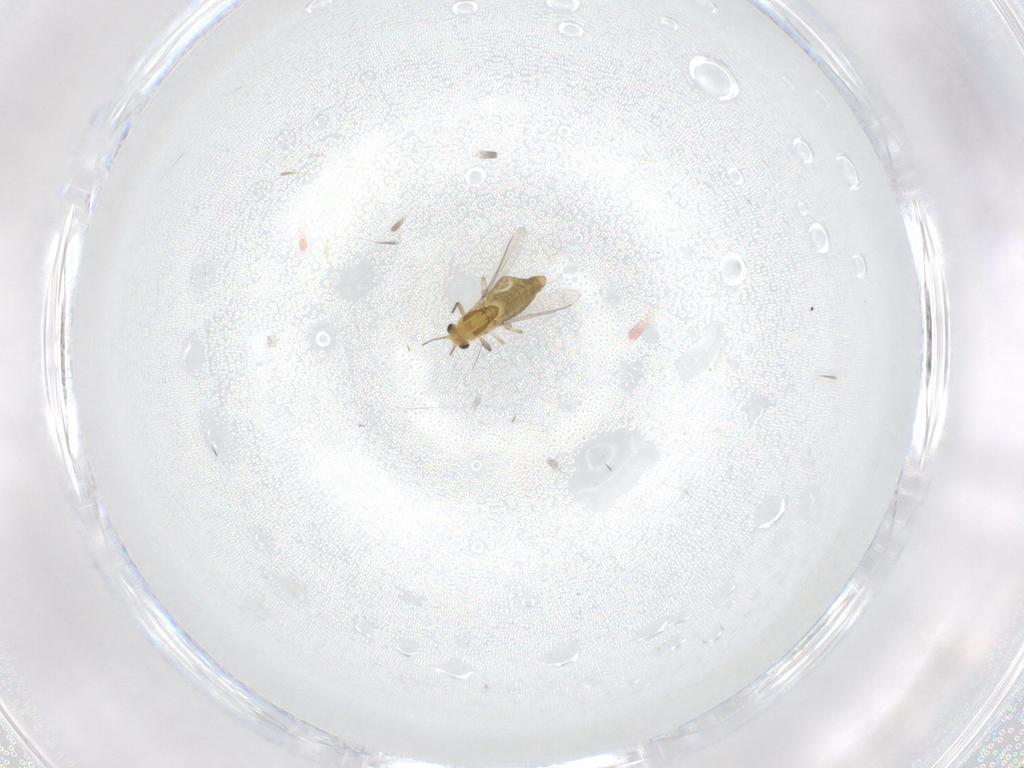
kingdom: Animalia
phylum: Arthropoda
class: Insecta
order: Diptera
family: Chironomidae
